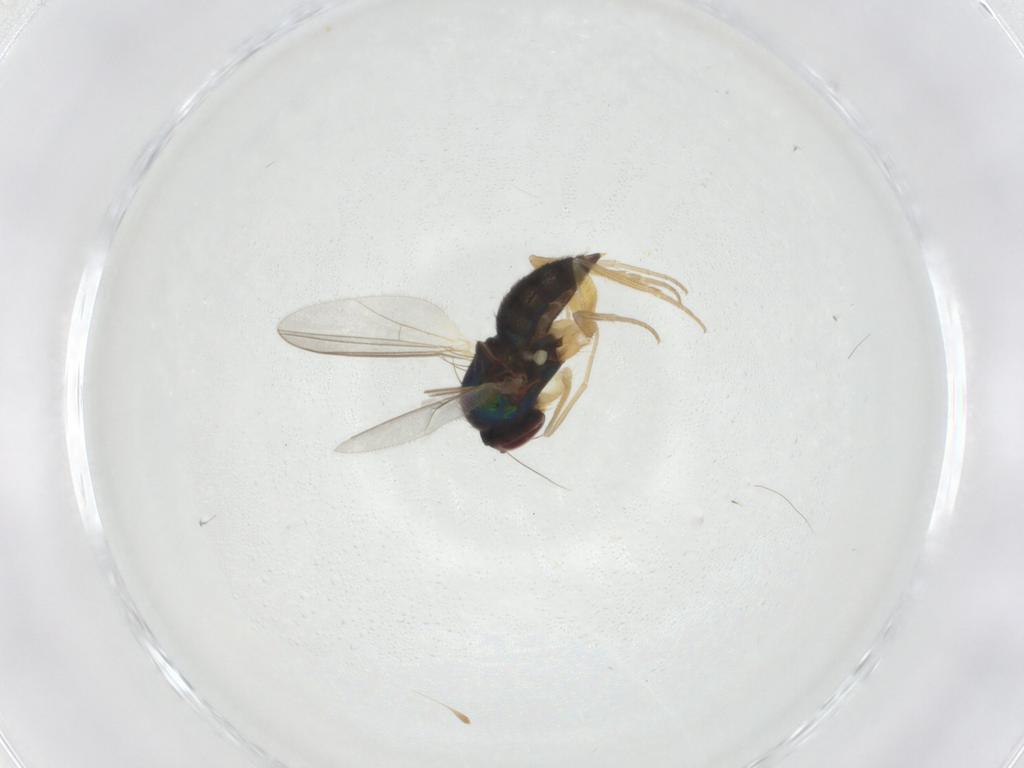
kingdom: Animalia
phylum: Arthropoda
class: Insecta
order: Diptera
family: Dolichopodidae
